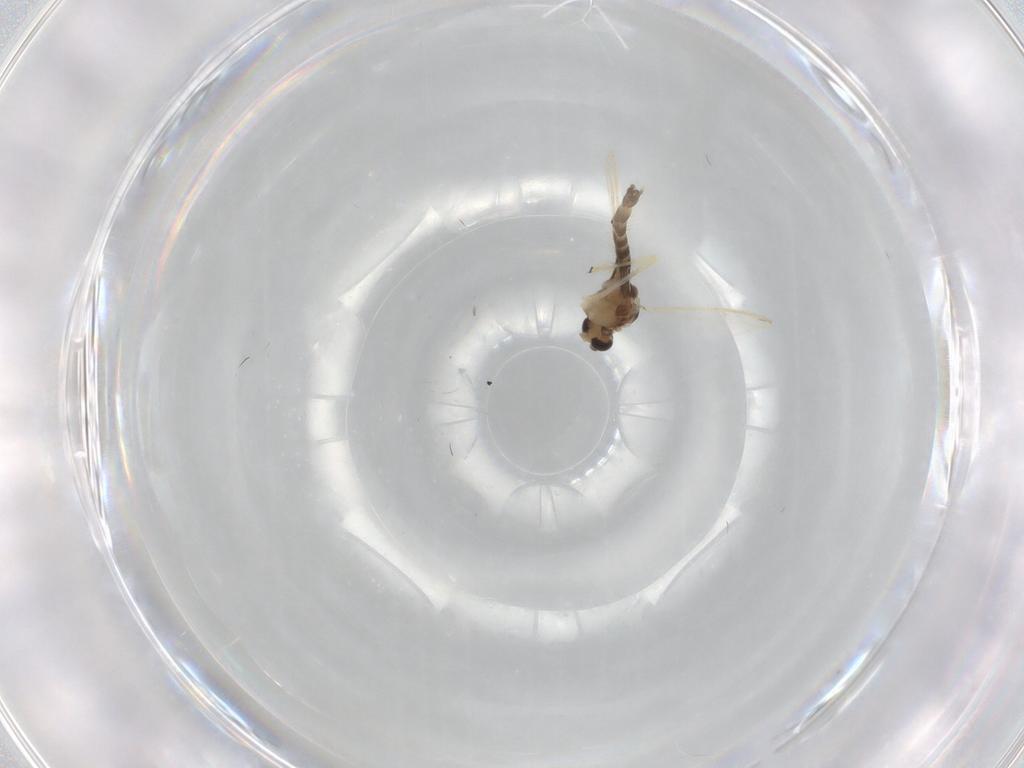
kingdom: Animalia
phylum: Arthropoda
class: Insecta
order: Diptera
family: Chironomidae
